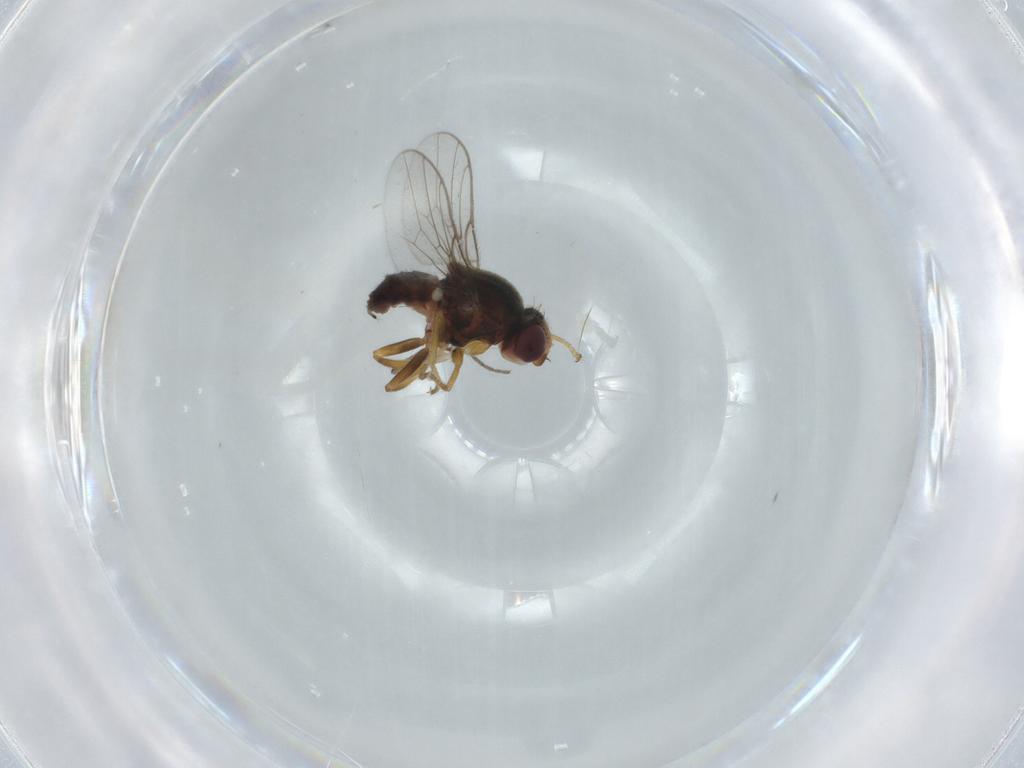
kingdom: Animalia
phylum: Arthropoda
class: Insecta
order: Diptera
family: Chloropidae
